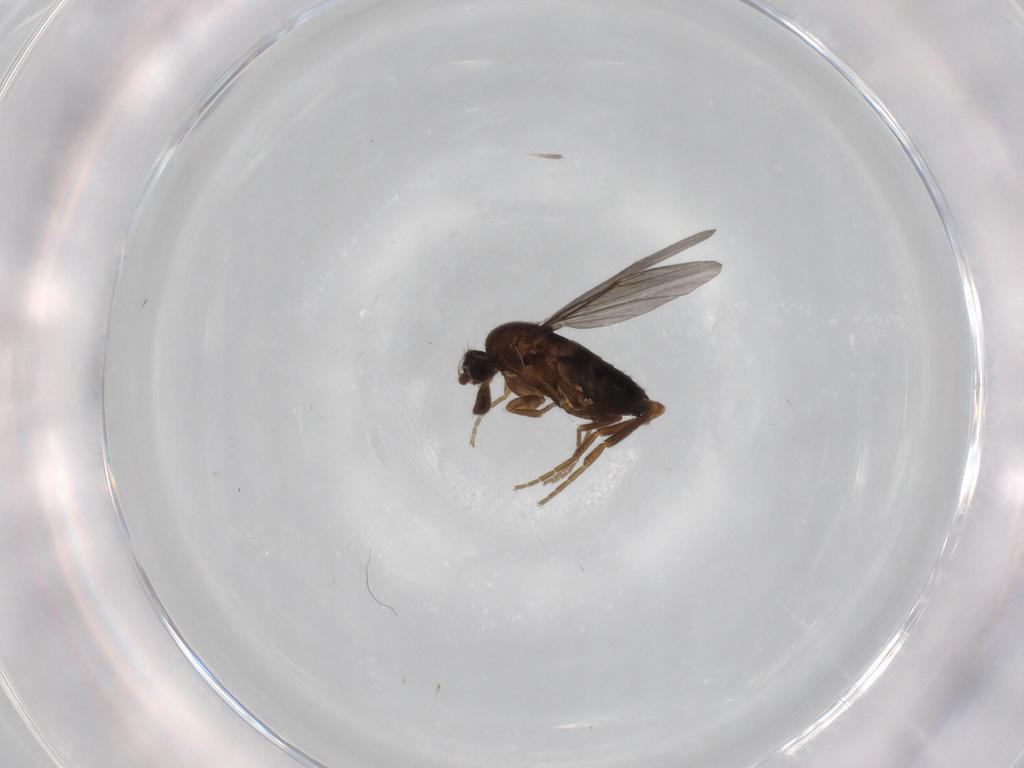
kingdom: Animalia
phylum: Arthropoda
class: Insecta
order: Diptera
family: Phoridae
